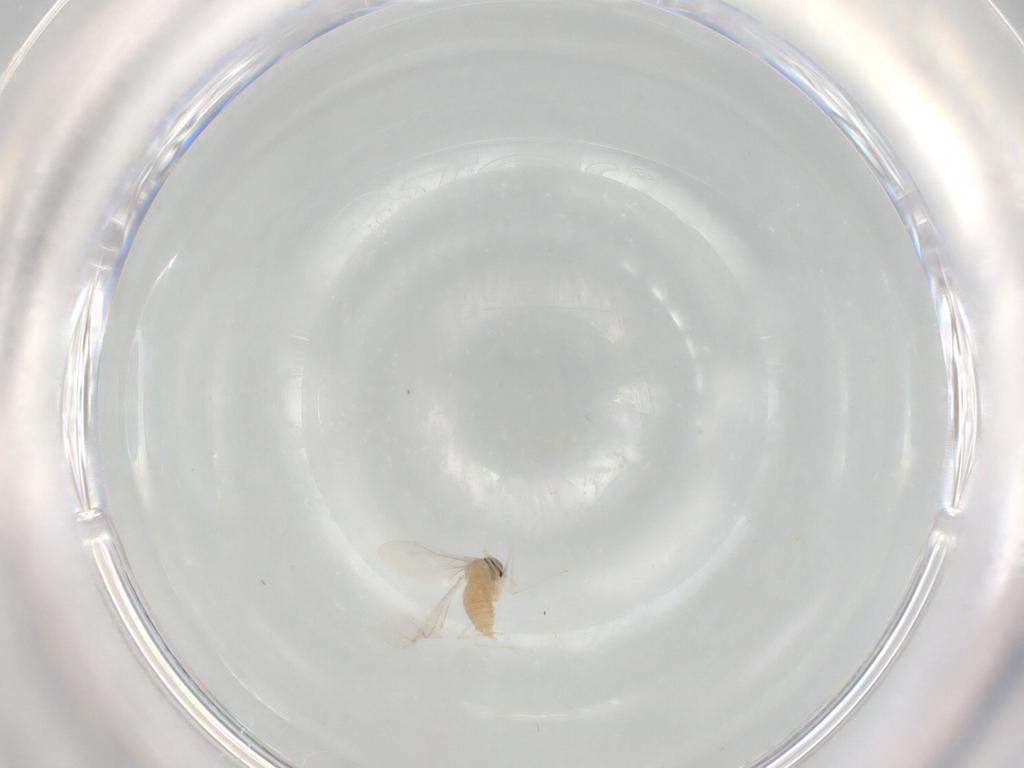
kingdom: Animalia
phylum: Arthropoda
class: Insecta
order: Diptera
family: Cecidomyiidae
